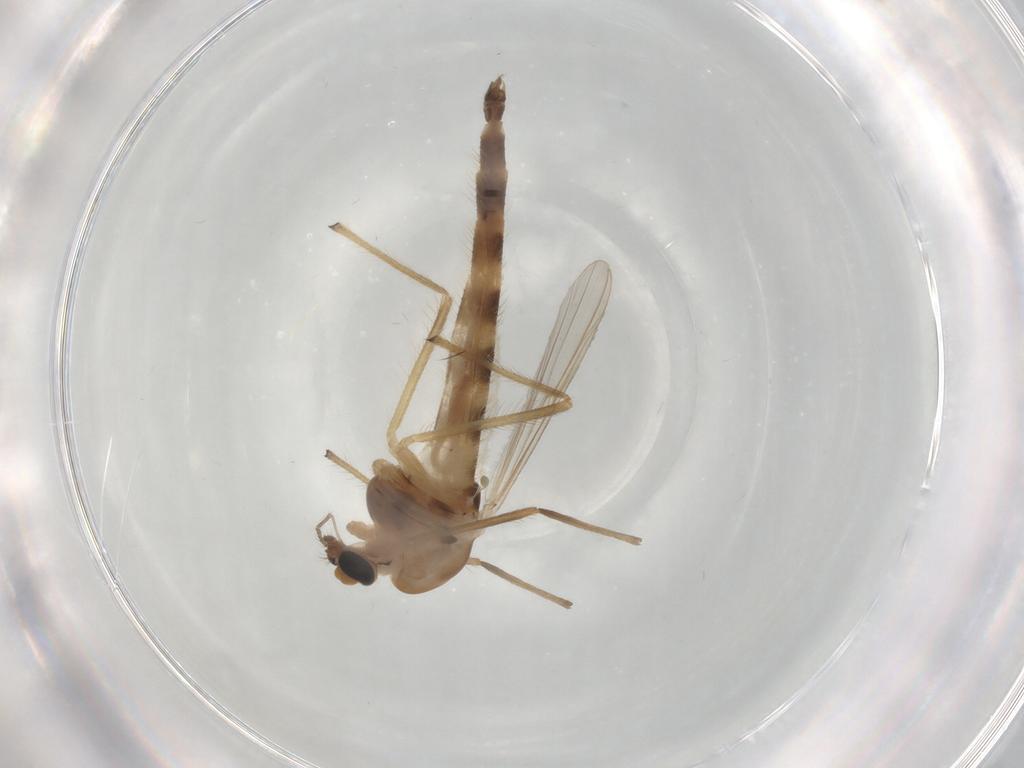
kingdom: Animalia
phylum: Arthropoda
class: Insecta
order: Diptera
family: Chironomidae
